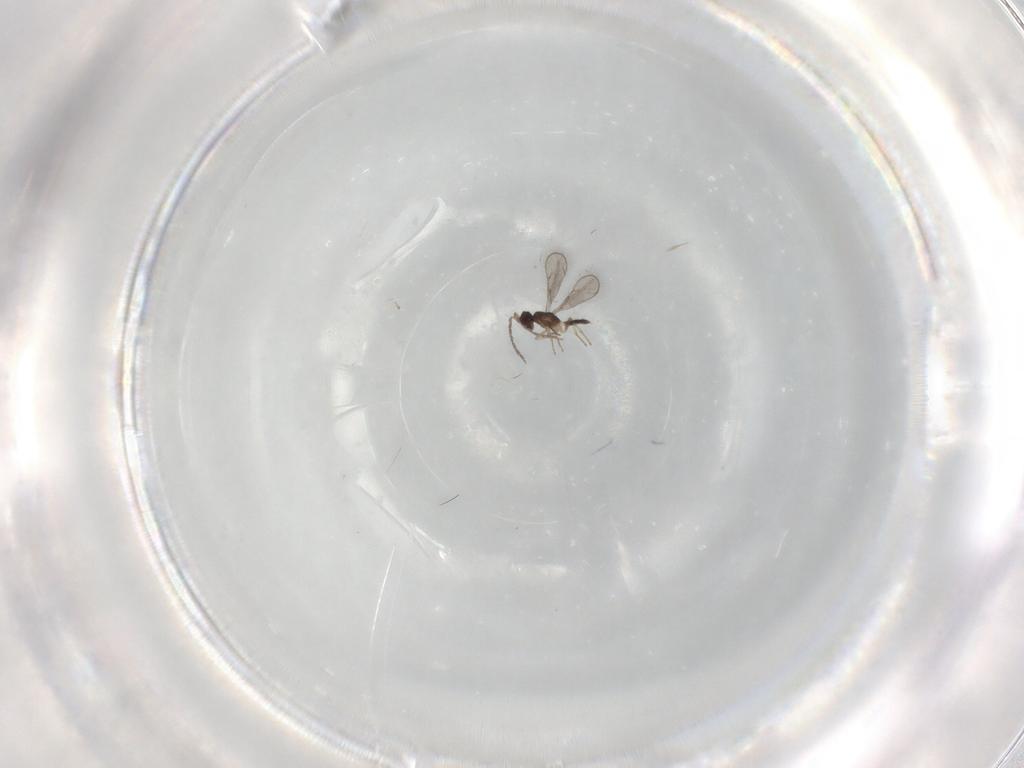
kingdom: Animalia
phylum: Arthropoda
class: Insecta
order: Hymenoptera
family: Eulophidae
